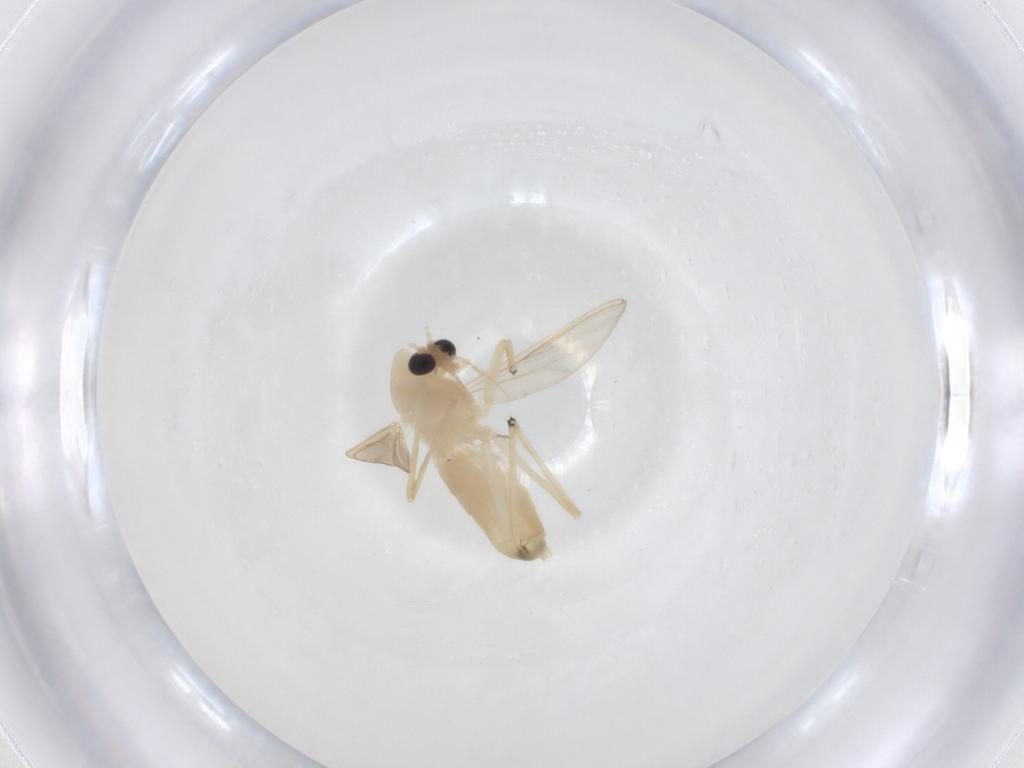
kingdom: Animalia
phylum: Arthropoda
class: Insecta
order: Diptera
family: Chironomidae
